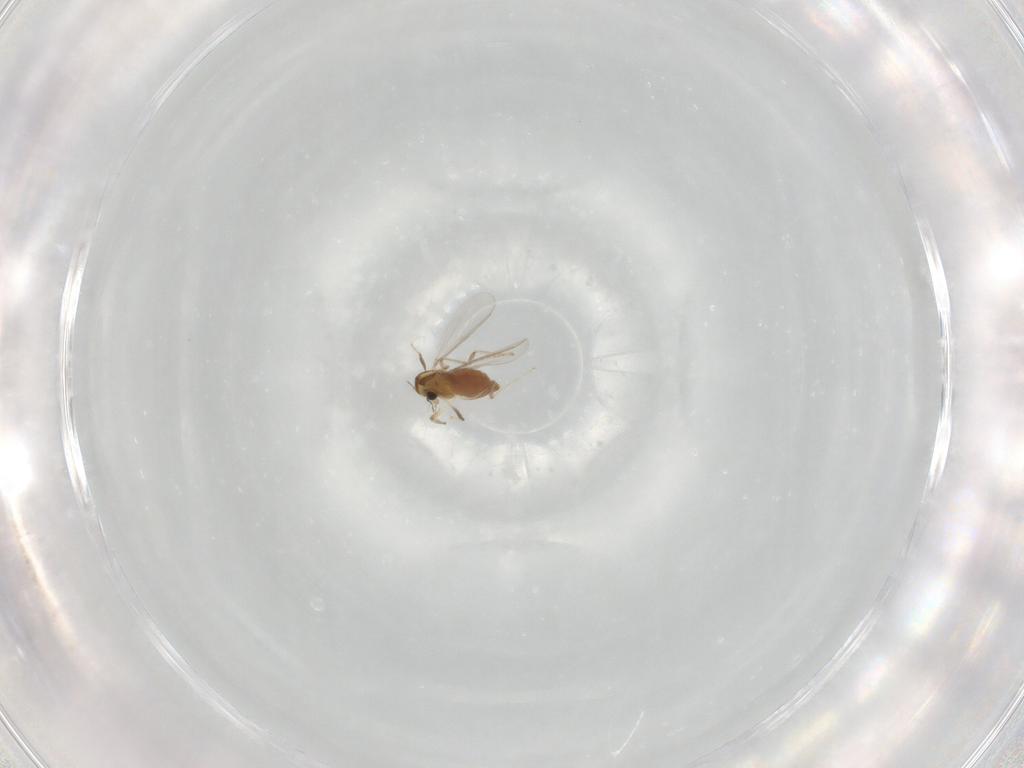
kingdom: Animalia
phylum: Arthropoda
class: Insecta
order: Diptera
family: Chironomidae
